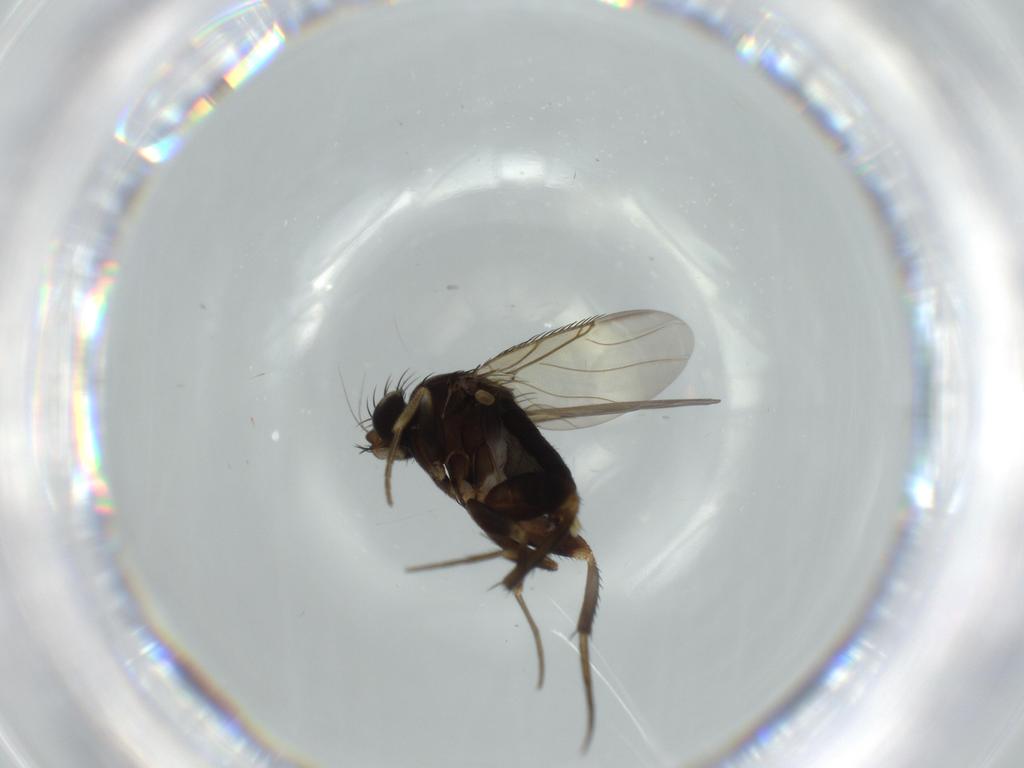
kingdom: Animalia
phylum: Arthropoda
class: Insecta
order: Diptera
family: Phoridae
